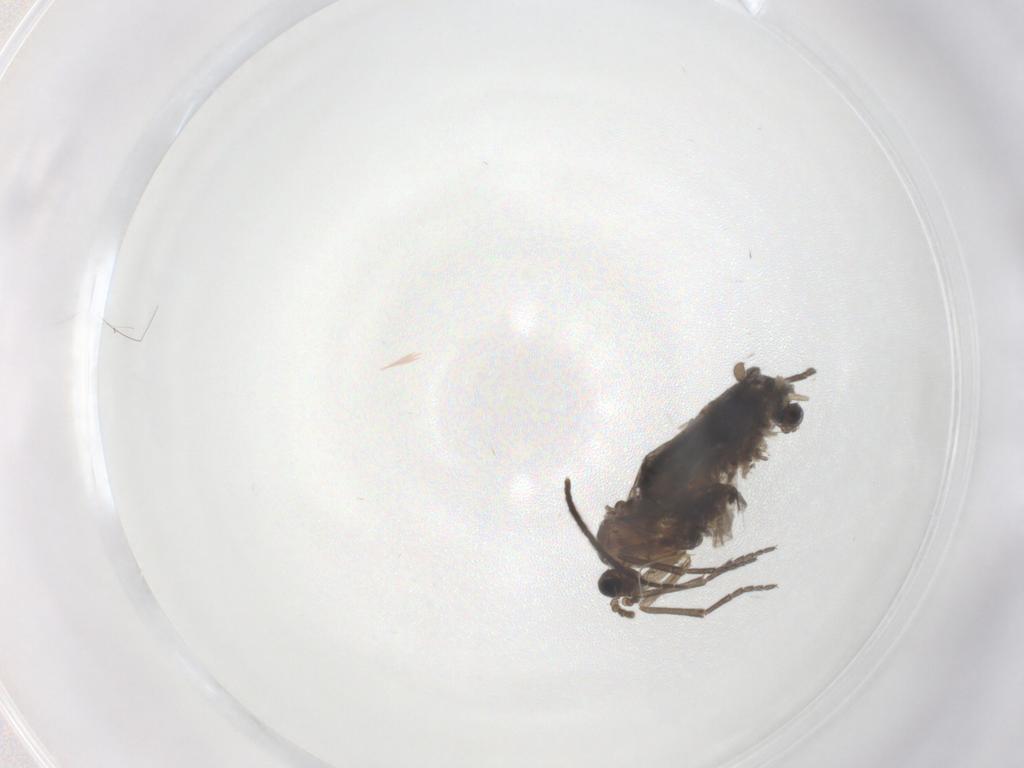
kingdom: Animalia
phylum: Arthropoda
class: Insecta
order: Diptera
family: Sciaridae
